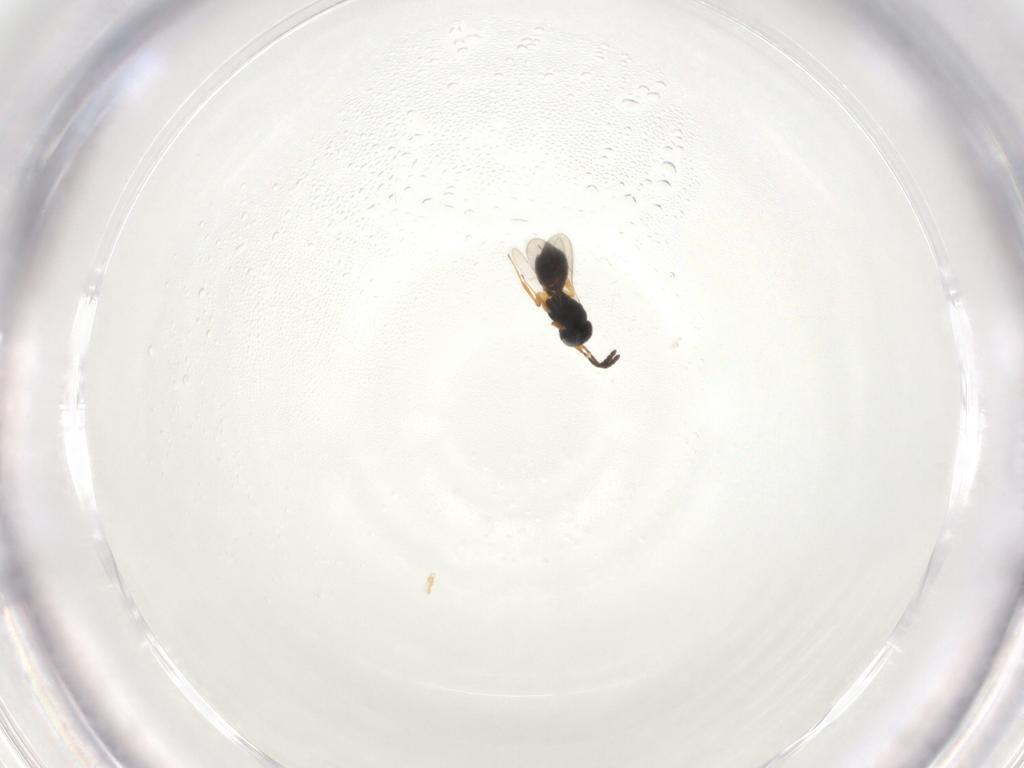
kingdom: Animalia
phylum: Arthropoda
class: Insecta
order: Hymenoptera
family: Scelionidae
